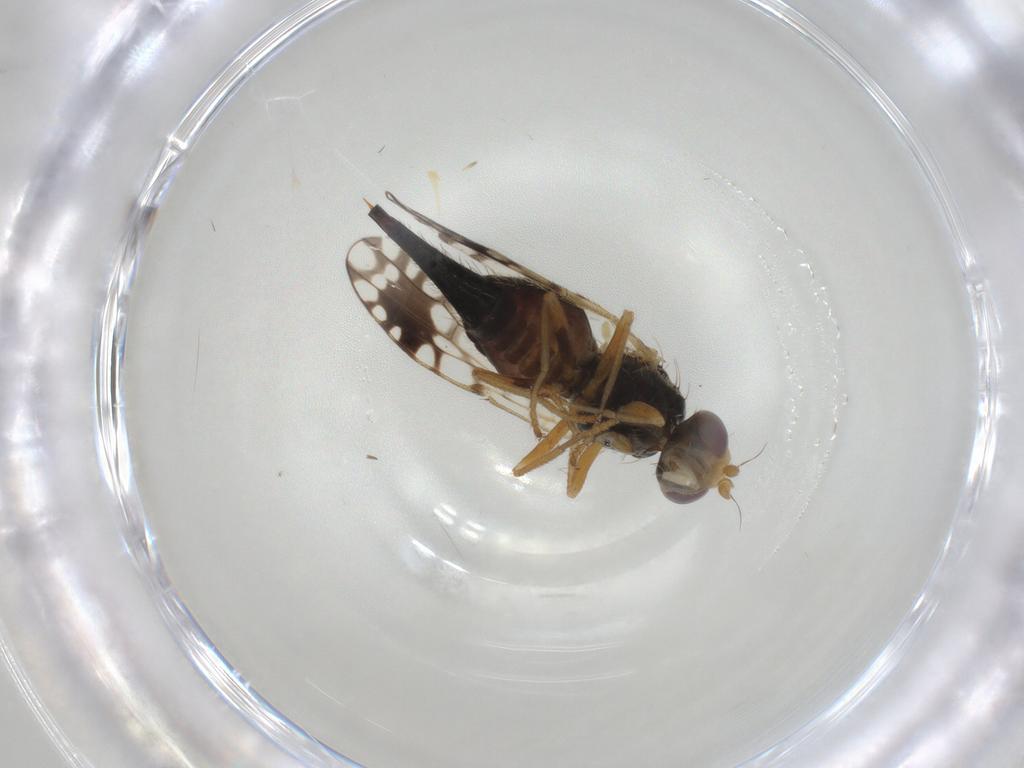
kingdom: Animalia
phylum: Arthropoda
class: Insecta
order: Diptera
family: Tephritidae
